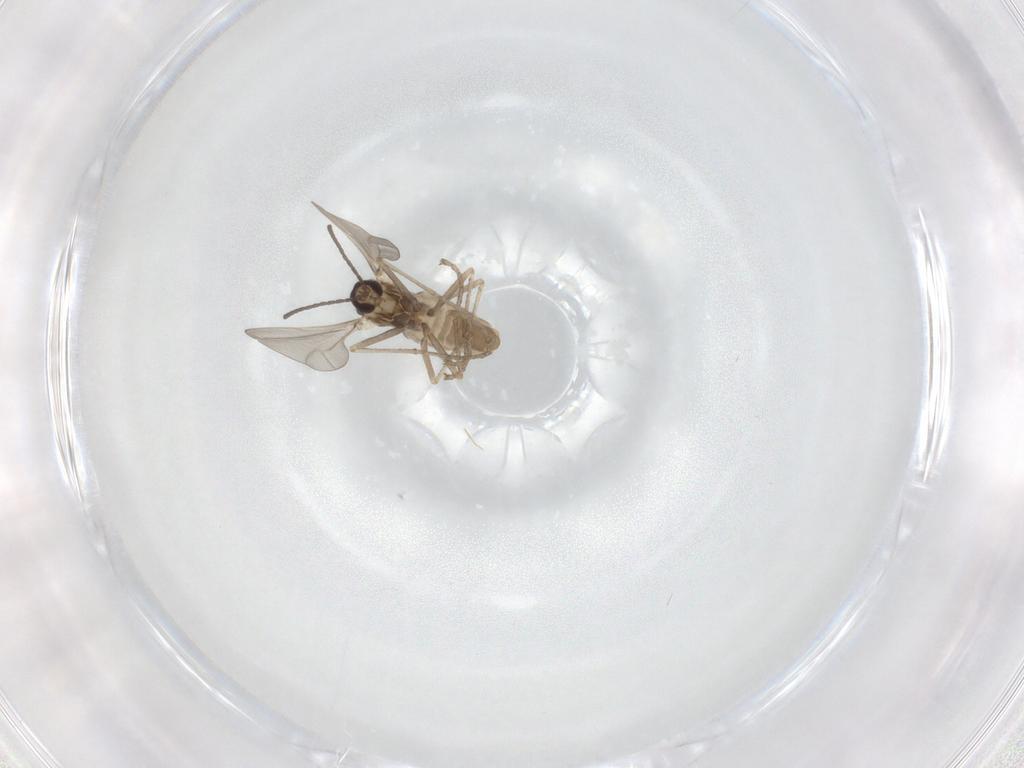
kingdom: Animalia
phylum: Arthropoda
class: Insecta
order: Diptera
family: Cecidomyiidae
